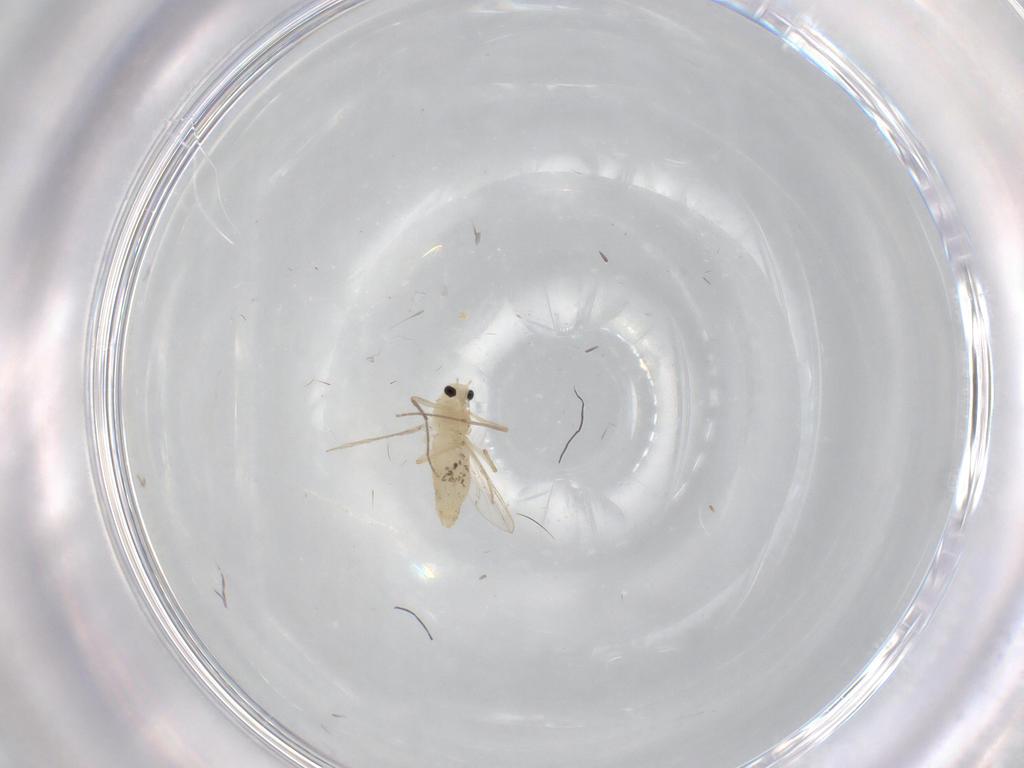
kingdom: Animalia
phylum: Arthropoda
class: Insecta
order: Diptera
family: Chironomidae
